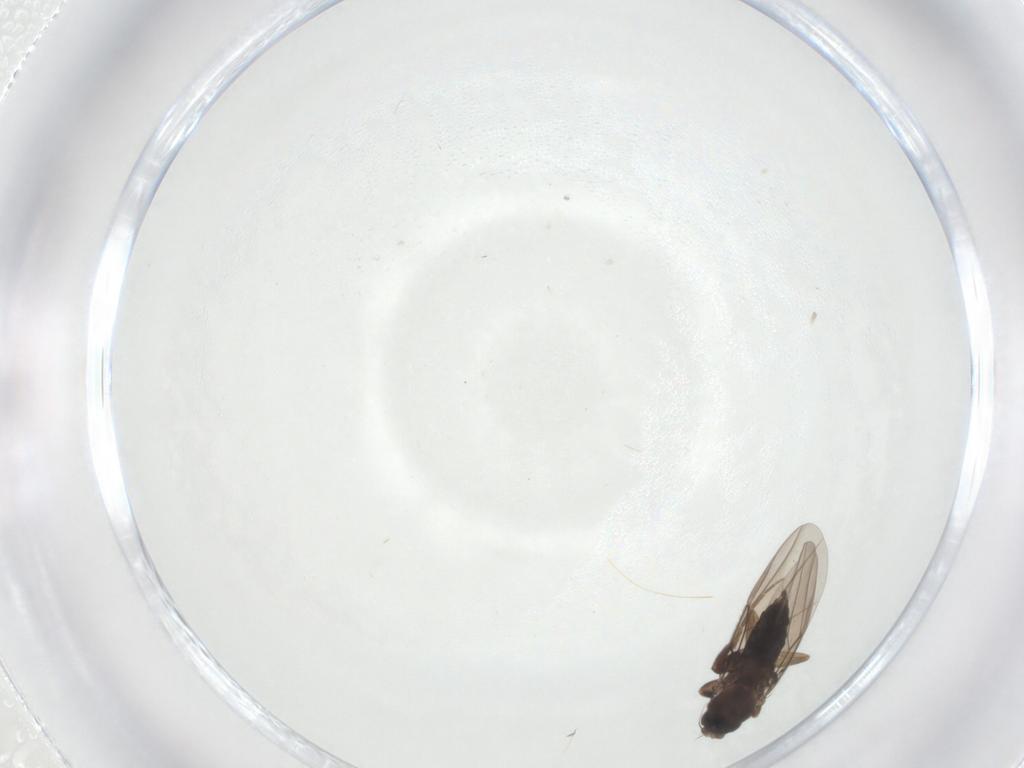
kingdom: Animalia
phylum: Arthropoda
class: Insecta
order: Diptera
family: Phoridae
